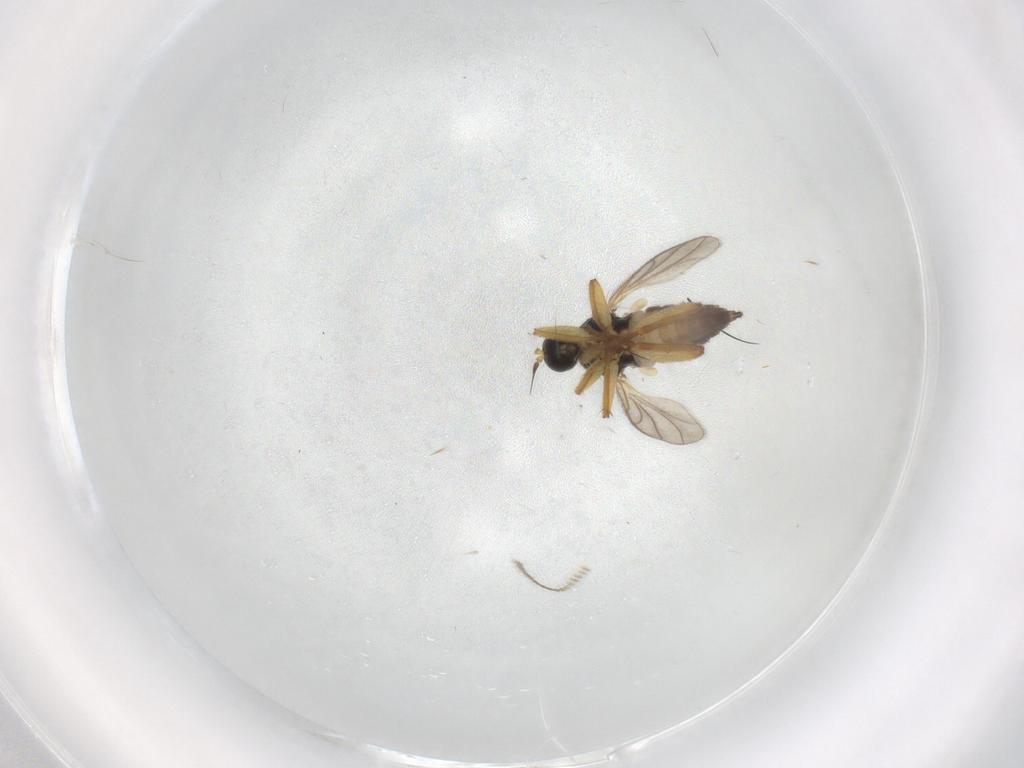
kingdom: Animalia
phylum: Arthropoda
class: Insecta
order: Diptera
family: Hybotidae
